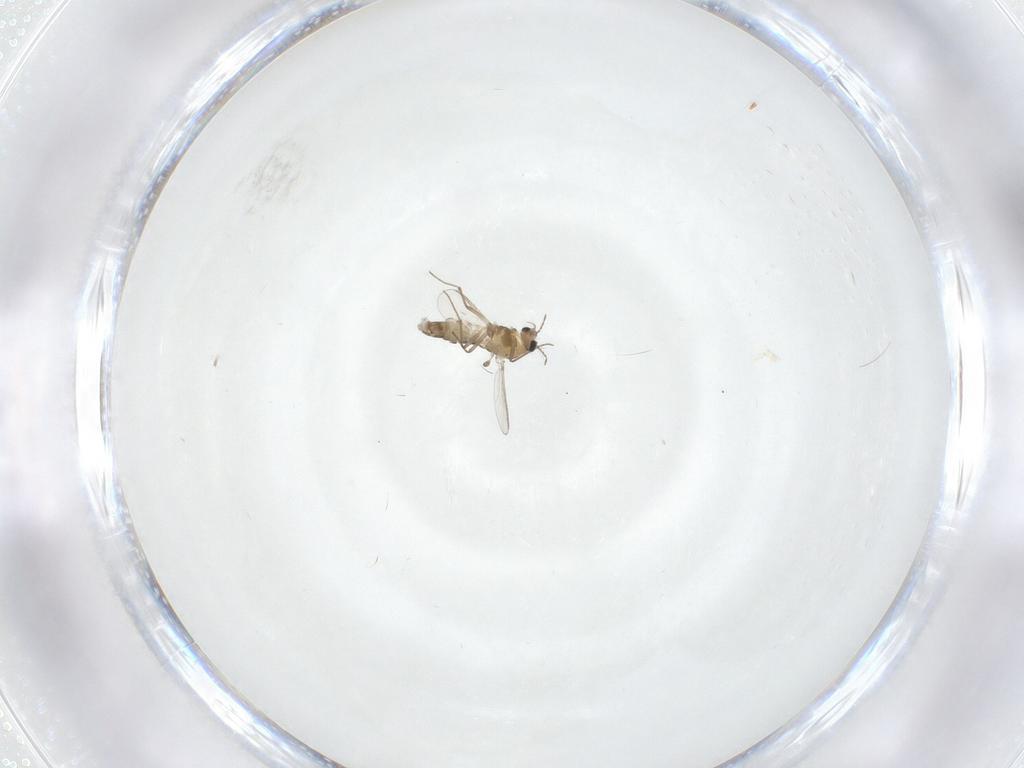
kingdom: Animalia
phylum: Arthropoda
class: Insecta
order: Diptera
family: Chironomidae
